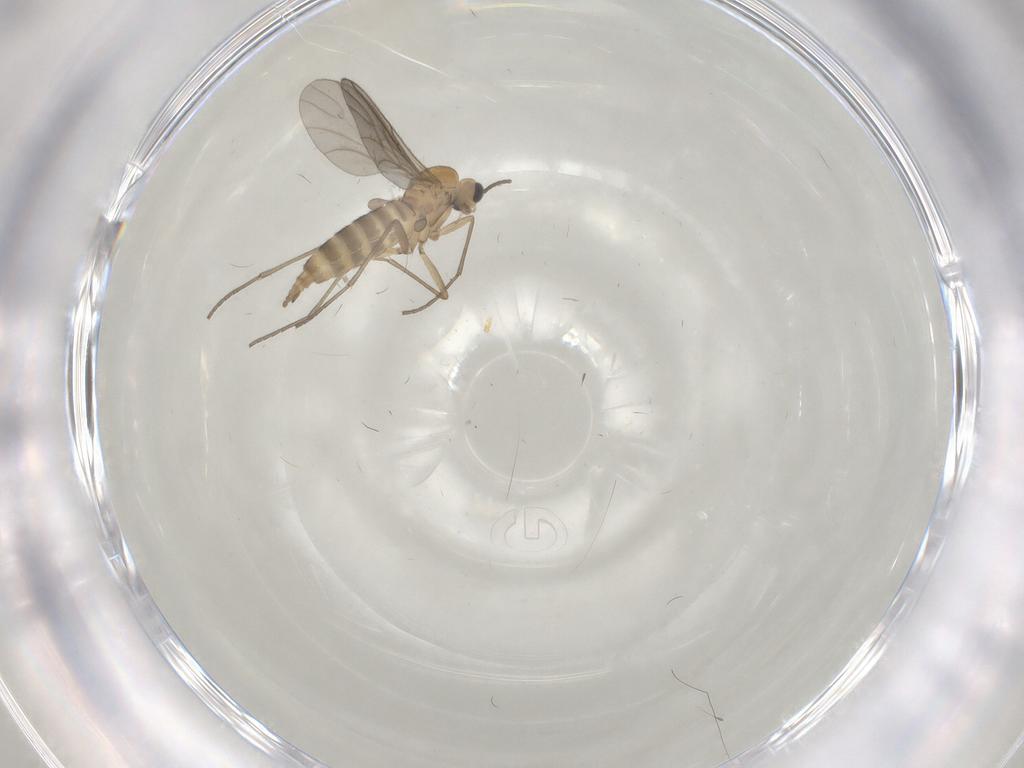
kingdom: Animalia
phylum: Arthropoda
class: Insecta
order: Diptera
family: Sciaridae
